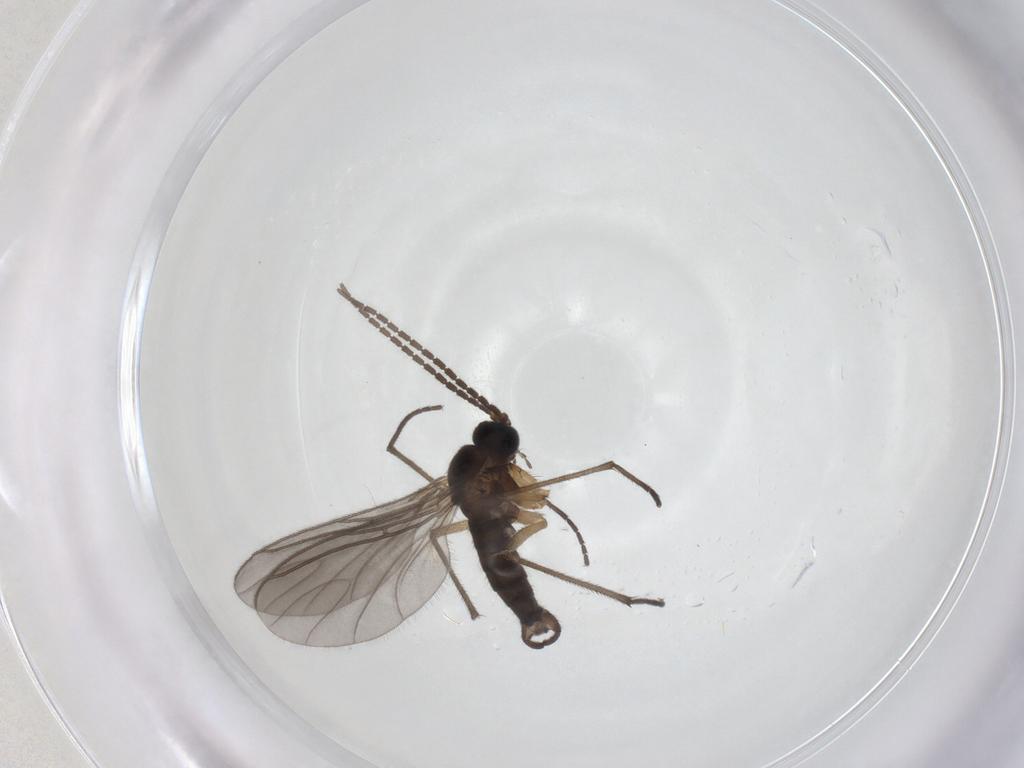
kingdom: Animalia
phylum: Arthropoda
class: Insecta
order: Diptera
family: Sciaridae
